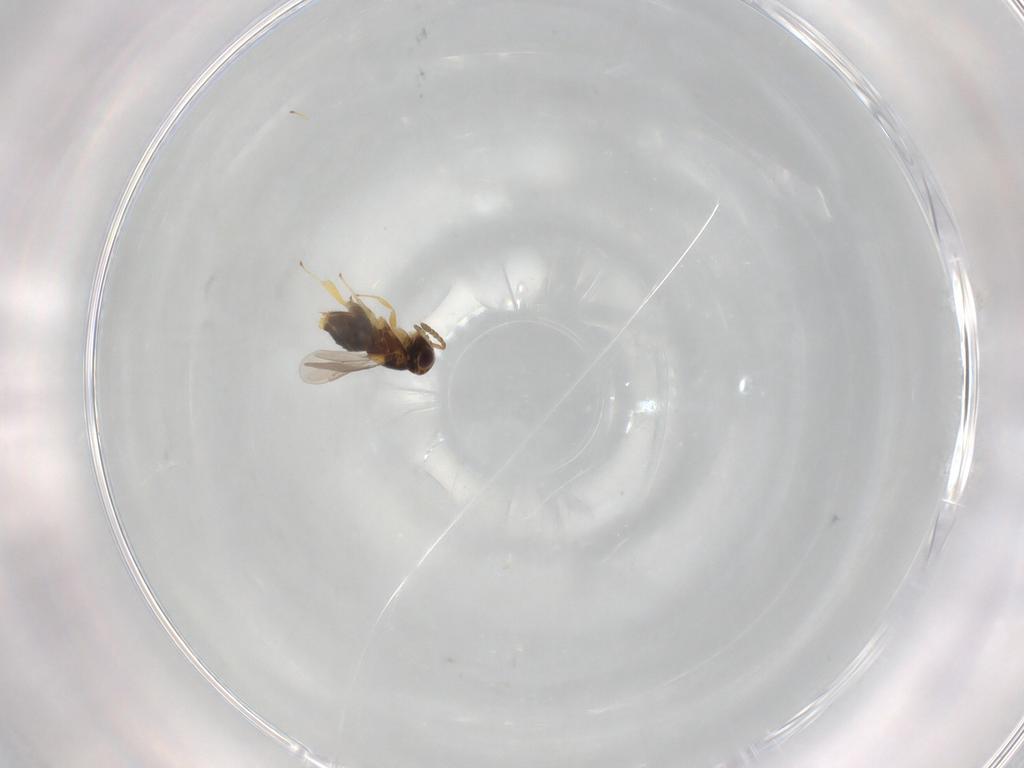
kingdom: Animalia
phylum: Arthropoda
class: Insecta
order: Hymenoptera
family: Aphelinidae
